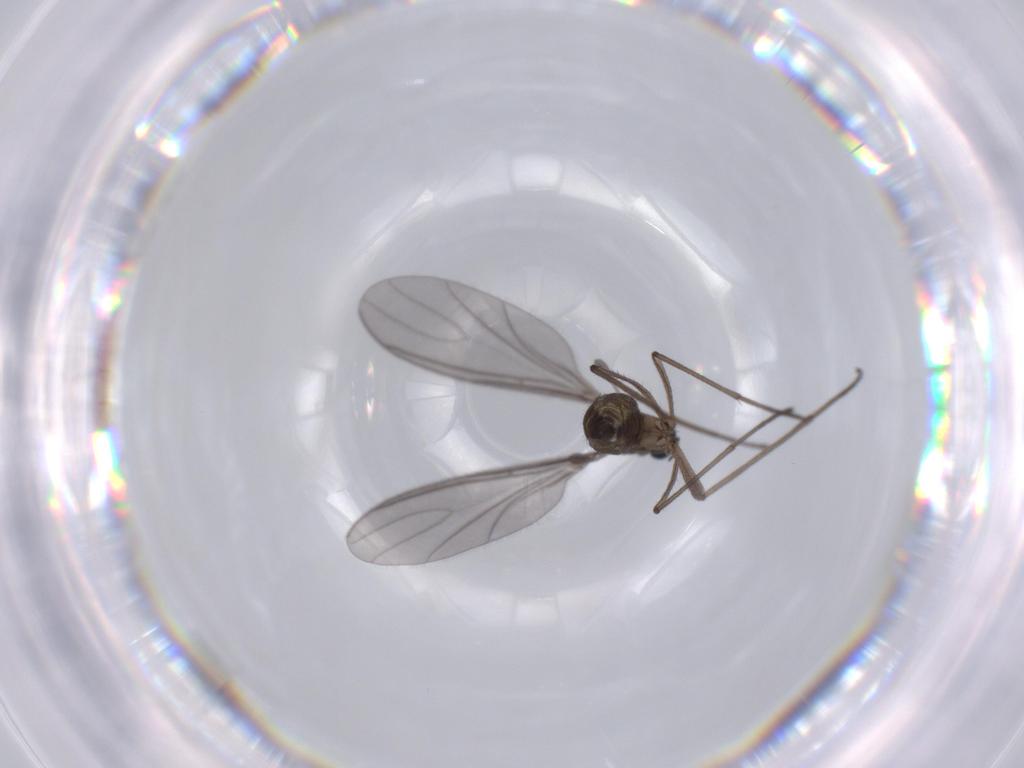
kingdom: Animalia
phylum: Arthropoda
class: Insecta
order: Diptera
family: Sciaridae
